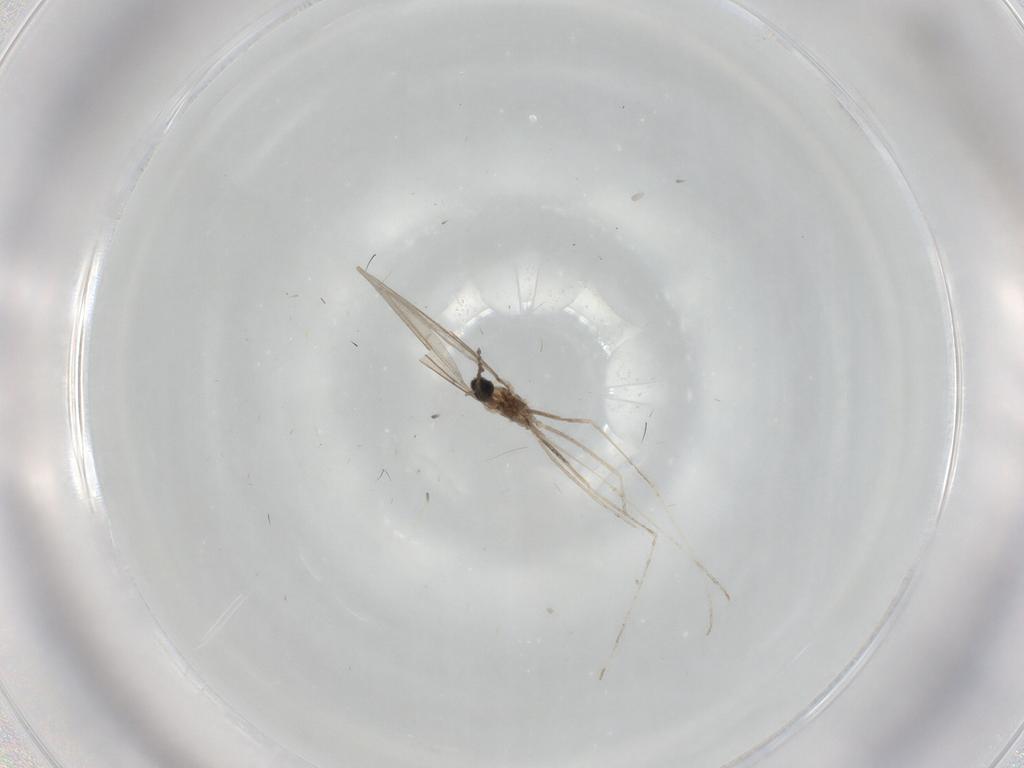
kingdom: Animalia
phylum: Arthropoda
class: Insecta
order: Diptera
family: Cecidomyiidae
